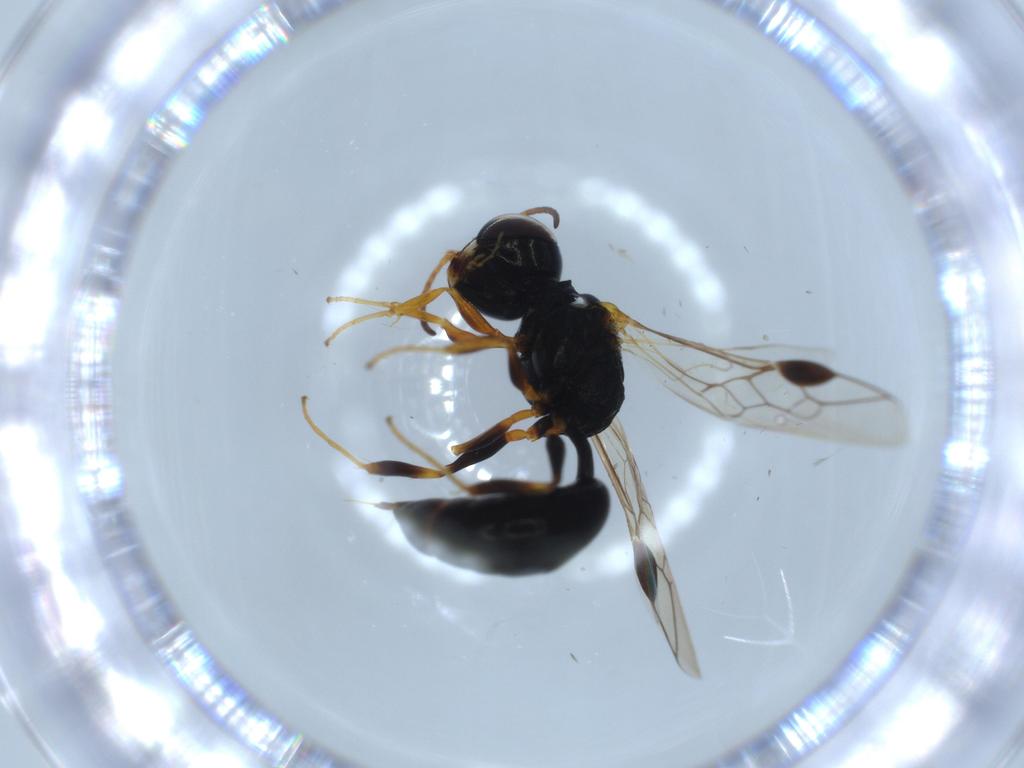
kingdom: Animalia
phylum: Arthropoda
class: Insecta
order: Hymenoptera
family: Crabronidae
